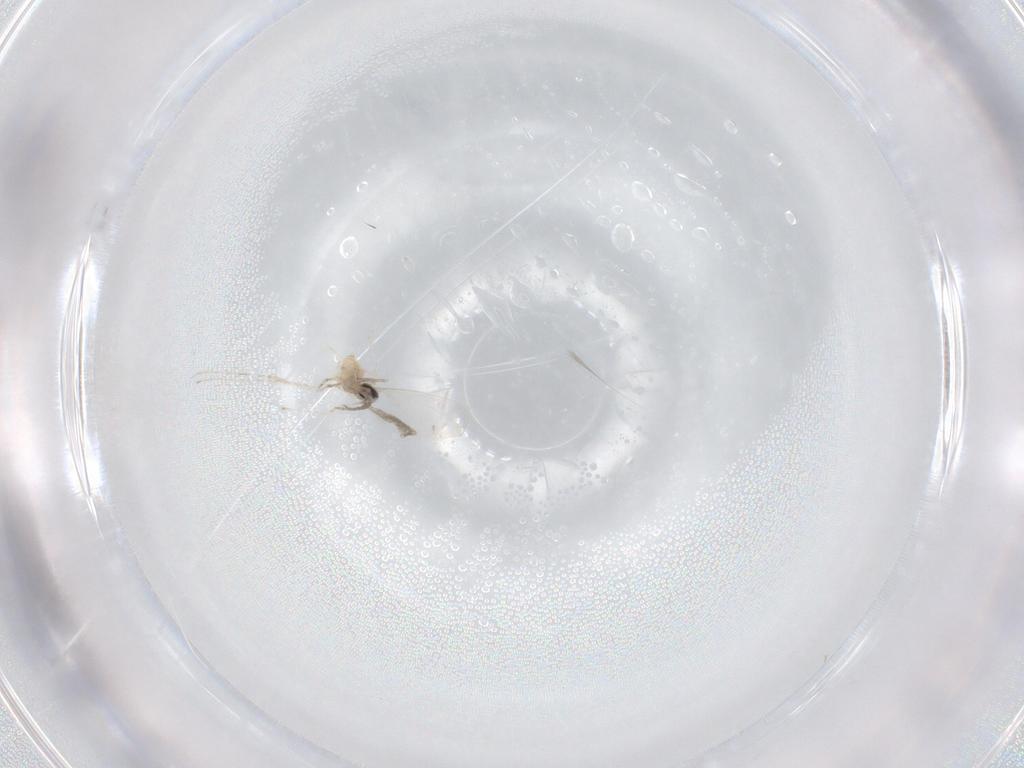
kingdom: Animalia
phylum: Arthropoda
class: Insecta
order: Diptera
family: Cecidomyiidae
